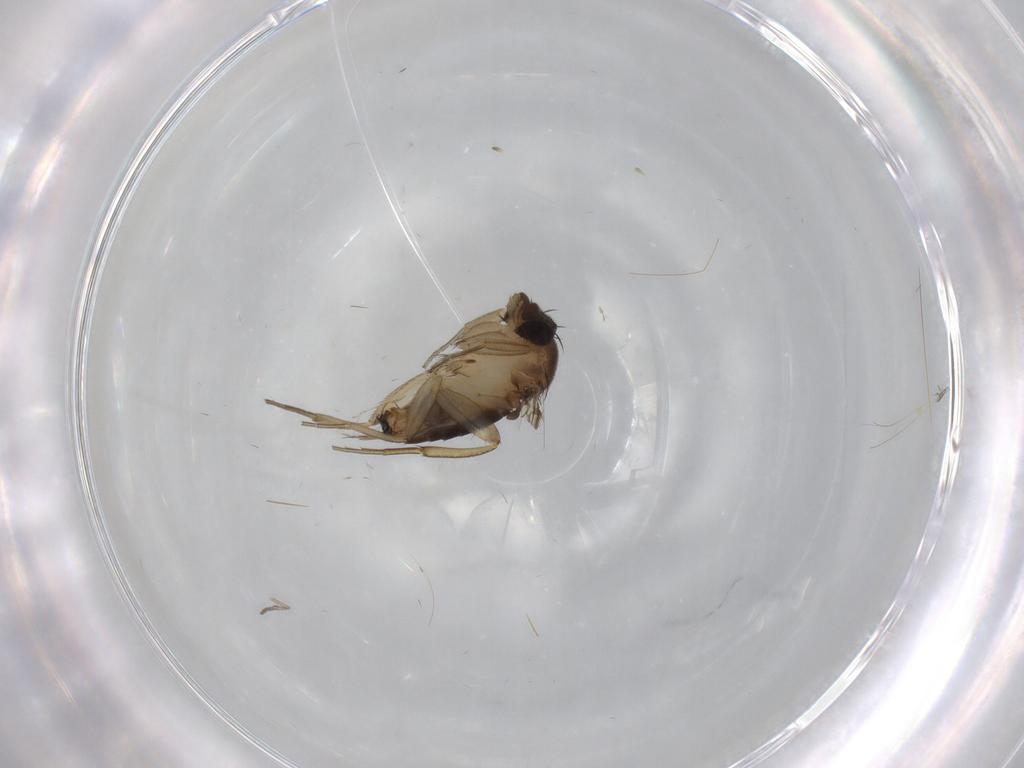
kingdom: Animalia
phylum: Arthropoda
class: Insecta
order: Diptera
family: Phoridae
